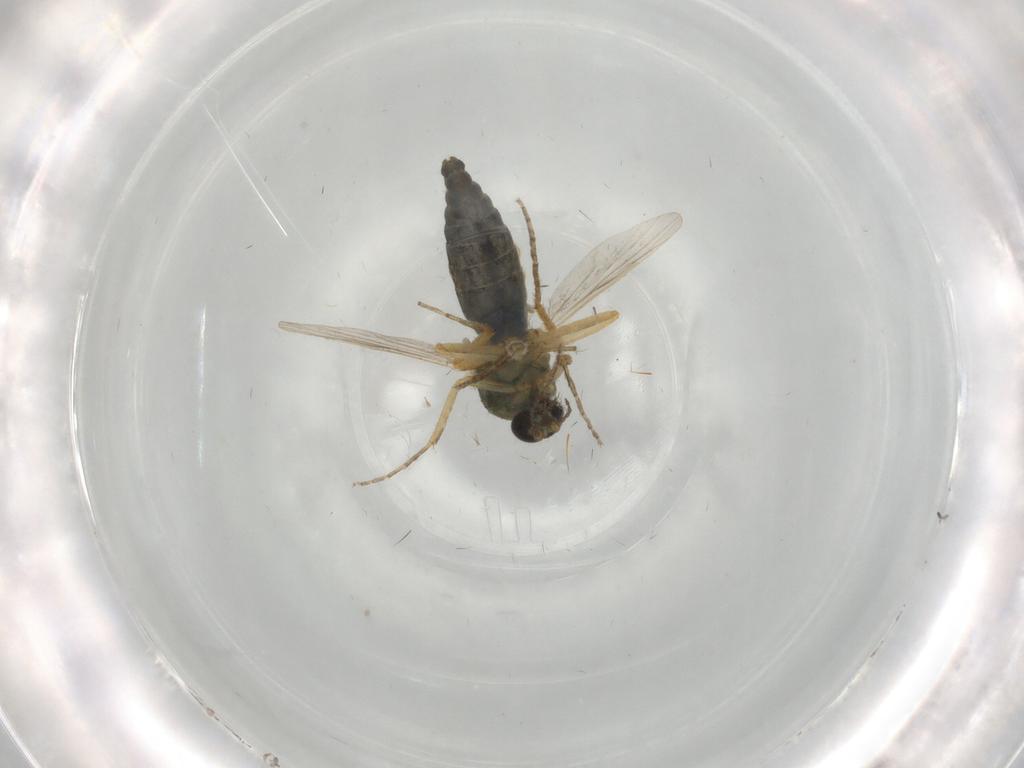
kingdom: Animalia
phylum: Arthropoda
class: Insecta
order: Diptera
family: Ceratopogonidae
